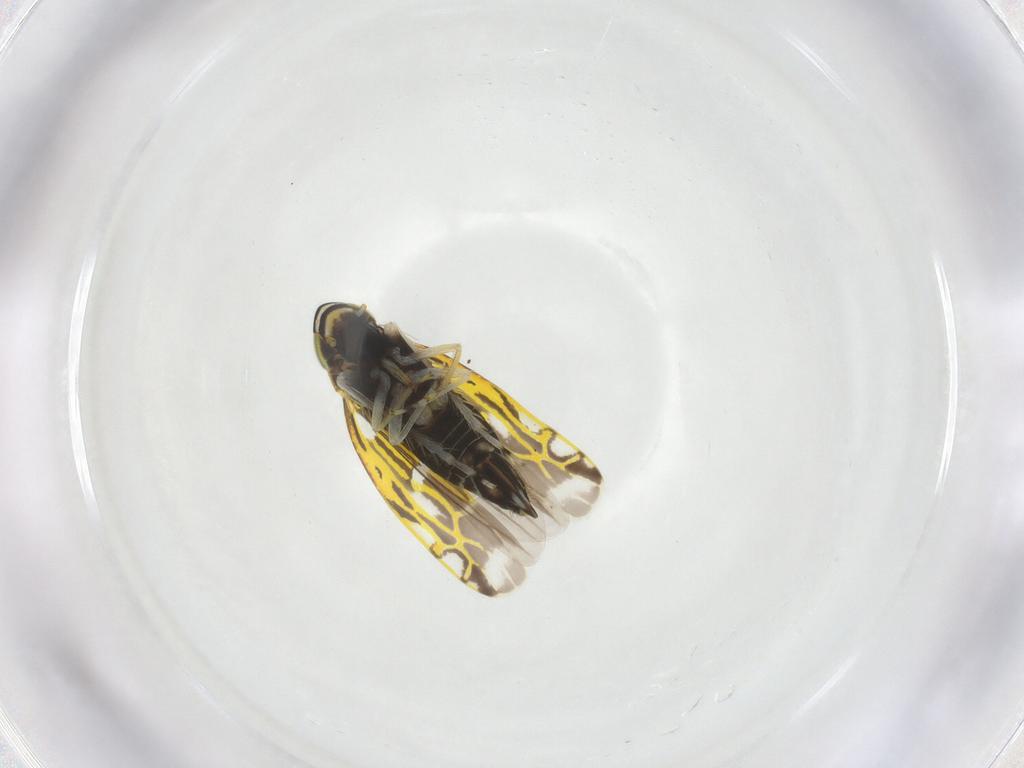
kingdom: Animalia
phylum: Arthropoda
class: Insecta
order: Hemiptera
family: Cicadellidae
